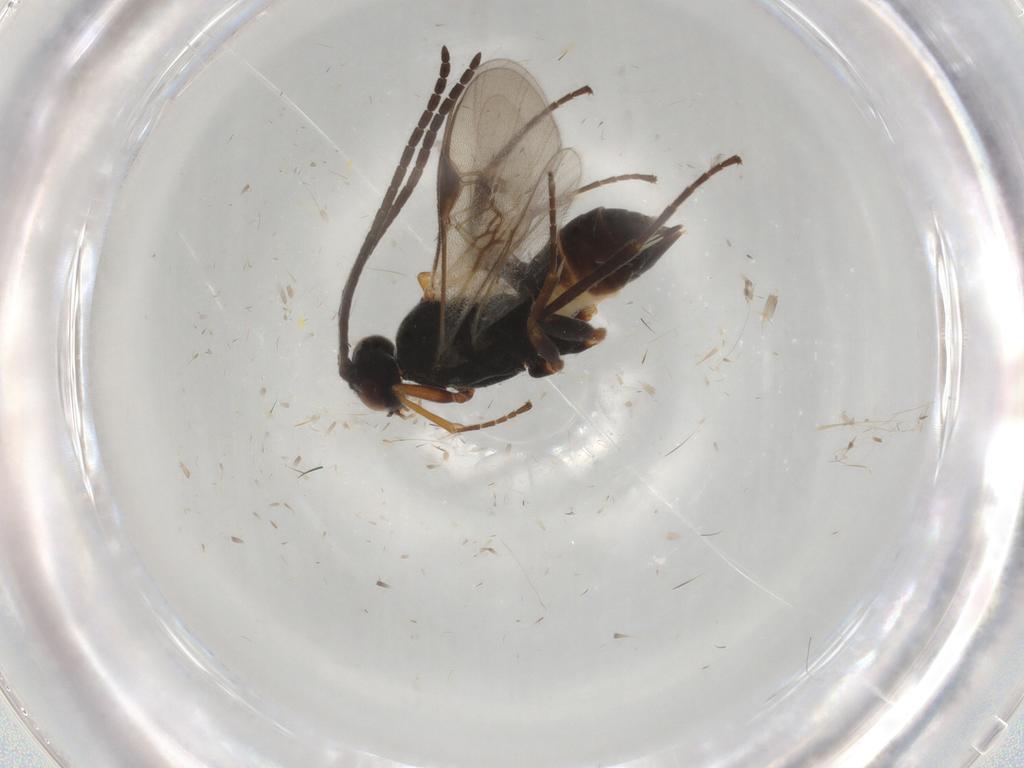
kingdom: Animalia
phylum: Arthropoda
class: Insecta
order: Hymenoptera
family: Braconidae
